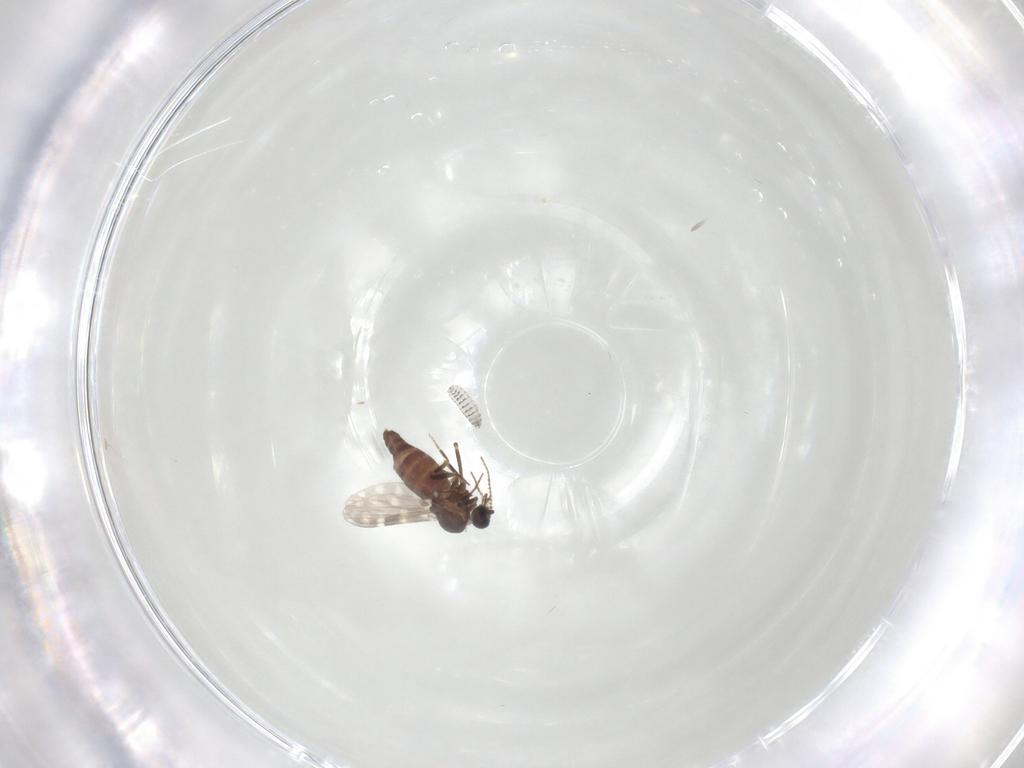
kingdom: Animalia
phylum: Arthropoda
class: Insecta
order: Diptera
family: Ceratopogonidae
